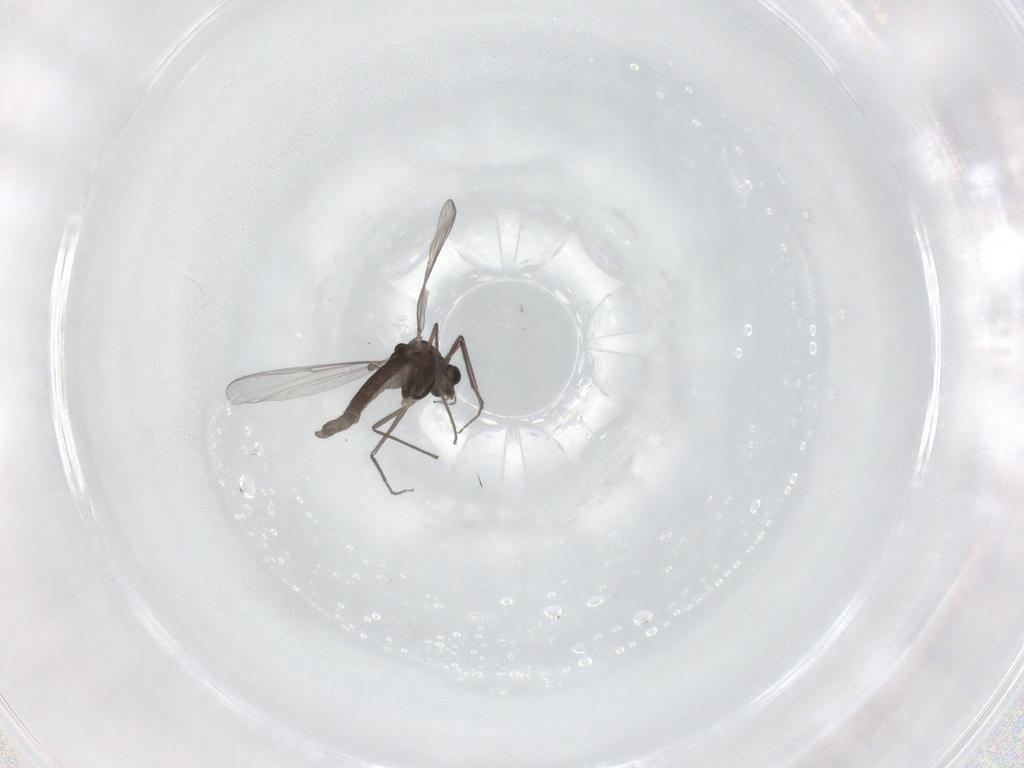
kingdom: Animalia
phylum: Arthropoda
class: Insecta
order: Diptera
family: Chironomidae
